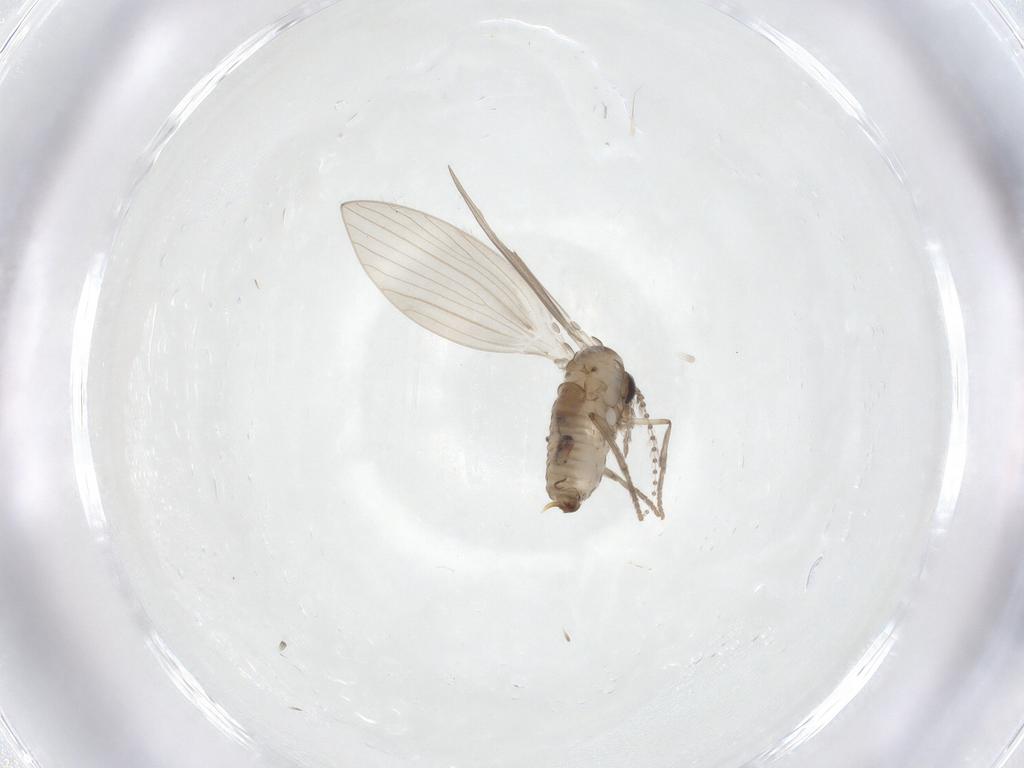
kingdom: Animalia
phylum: Arthropoda
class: Insecta
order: Diptera
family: Psychodidae
